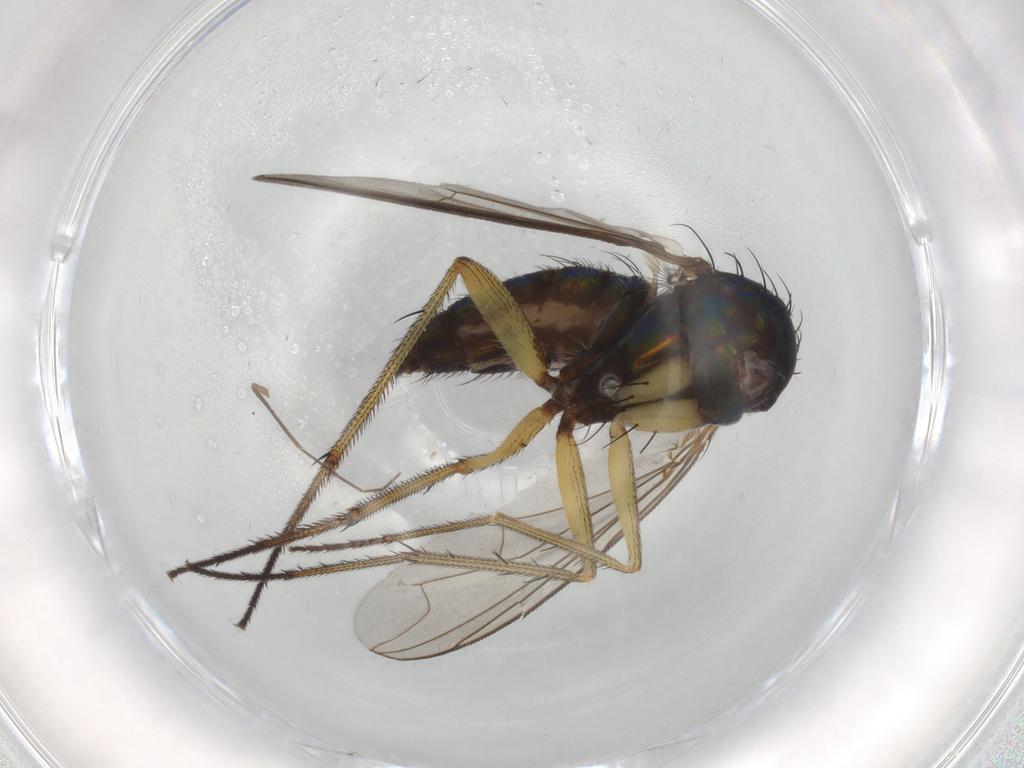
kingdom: Animalia
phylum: Arthropoda
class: Insecta
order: Diptera
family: Dolichopodidae
